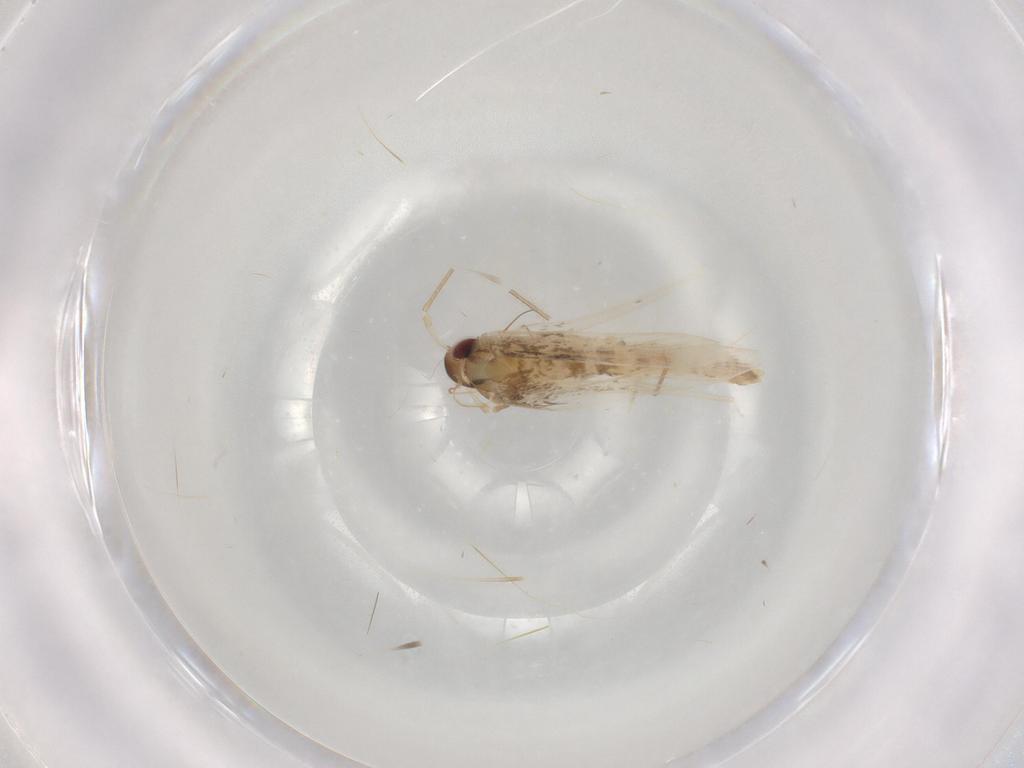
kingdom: Animalia
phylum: Arthropoda
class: Insecta
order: Lepidoptera
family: Cosmopterigidae
